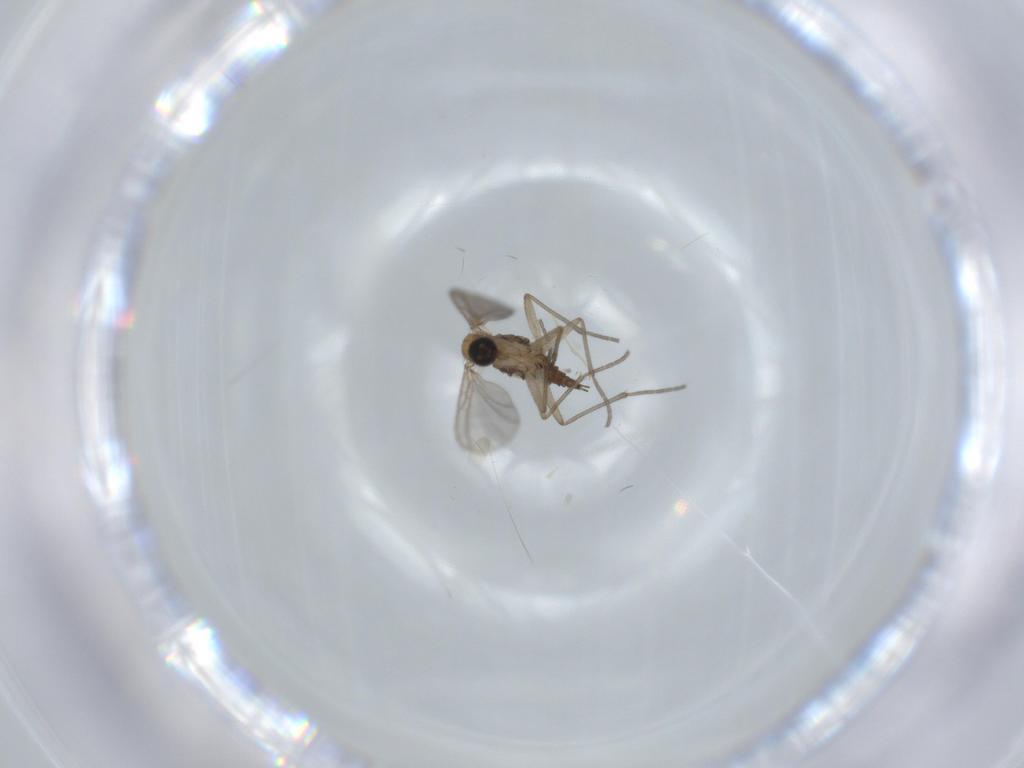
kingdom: Animalia
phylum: Arthropoda
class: Insecta
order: Diptera
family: Sciaridae
